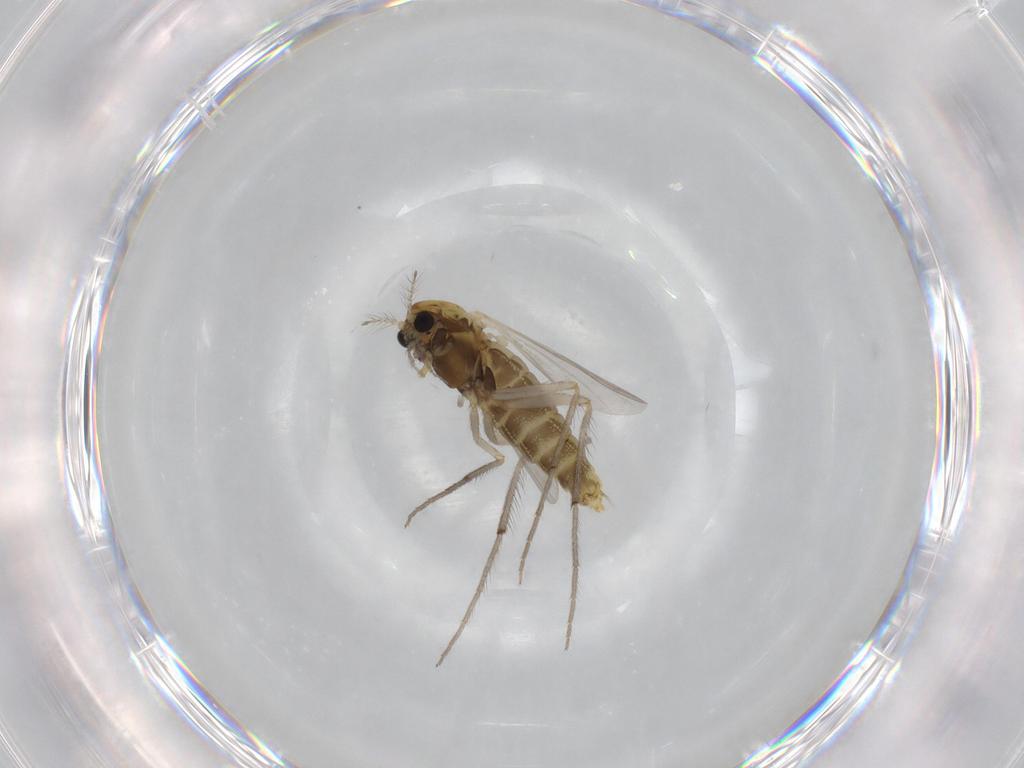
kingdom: Animalia
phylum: Arthropoda
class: Insecta
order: Diptera
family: Chironomidae
